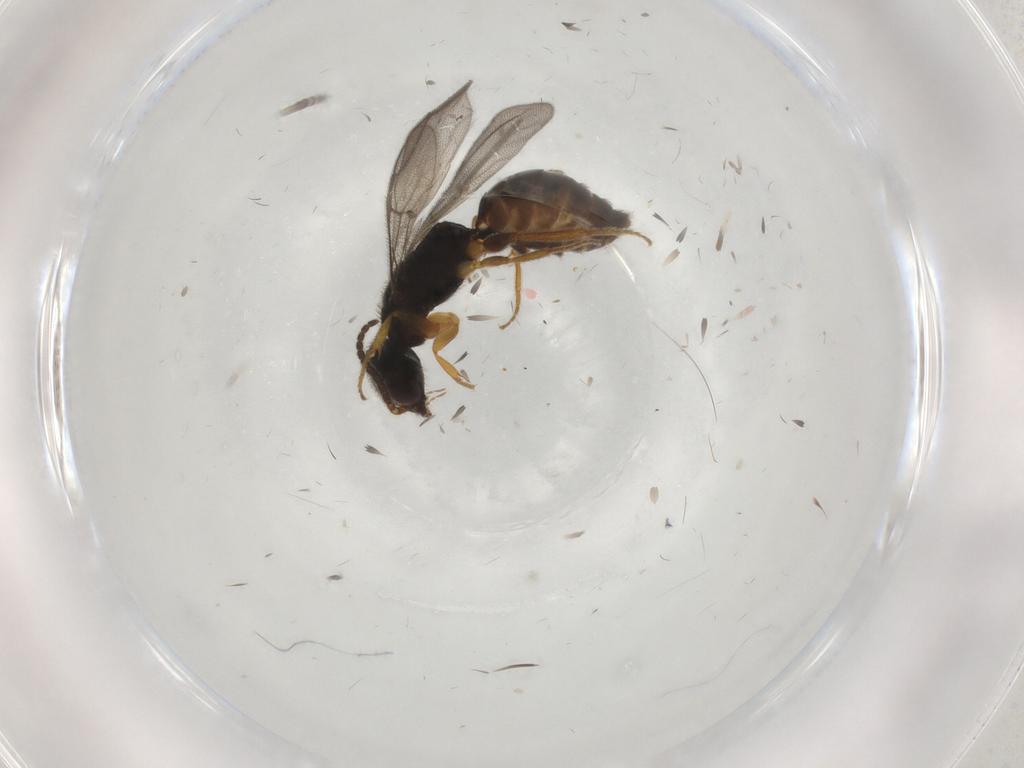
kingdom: Animalia
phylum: Arthropoda
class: Insecta
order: Hymenoptera
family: Bethylidae
